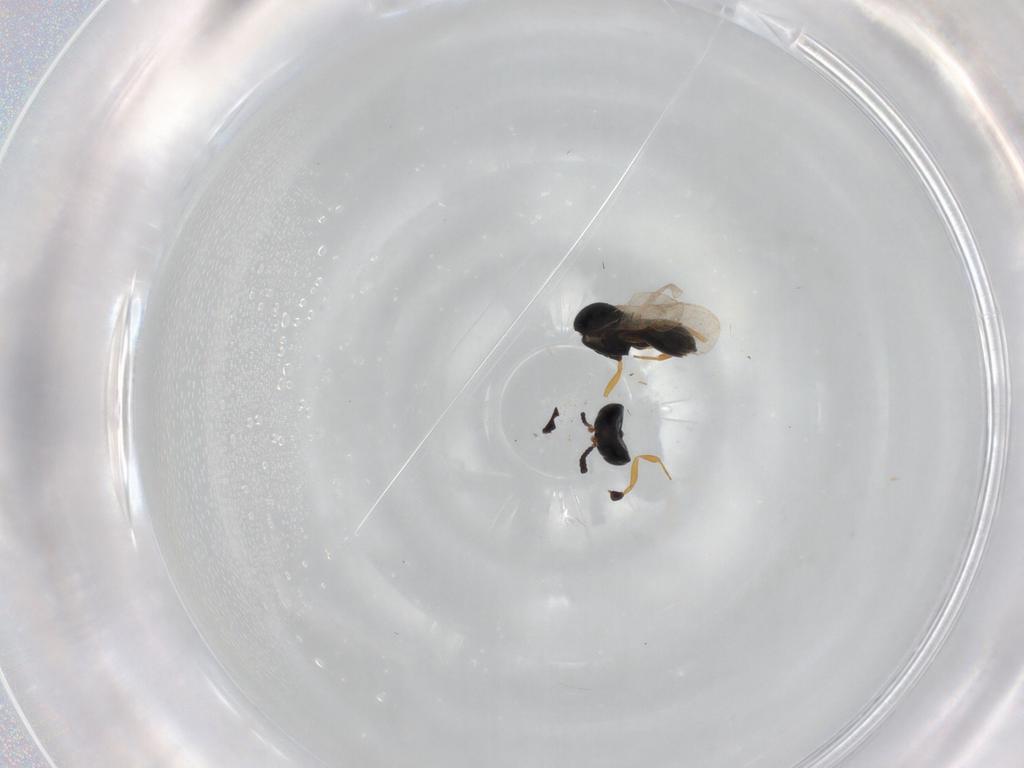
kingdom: Animalia
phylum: Arthropoda
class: Insecta
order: Hymenoptera
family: Scelionidae
